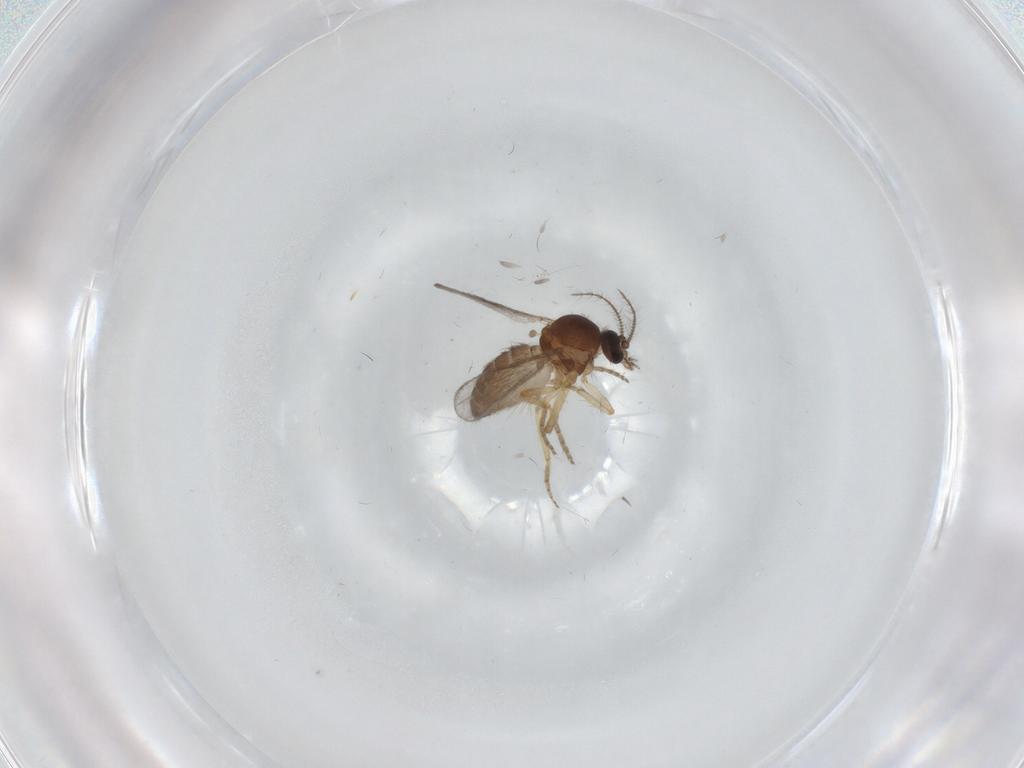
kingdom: Animalia
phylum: Arthropoda
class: Insecta
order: Diptera
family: Ceratopogonidae
